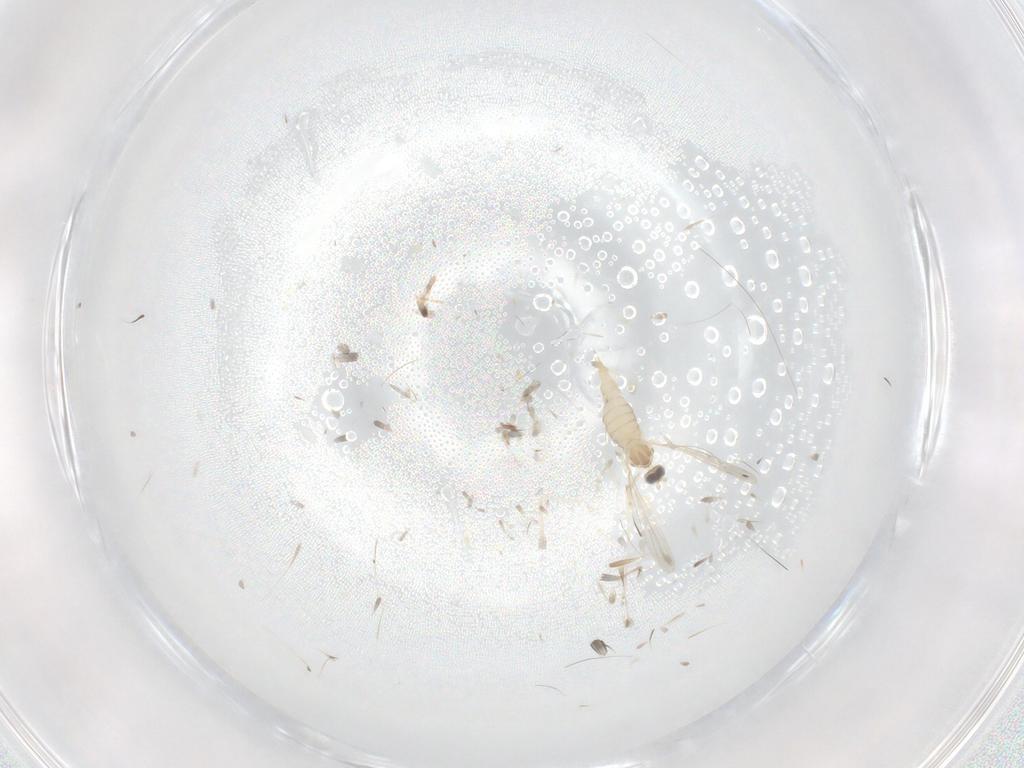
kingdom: Animalia
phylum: Arthropoda
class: Insecta
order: Diptera
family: Cecidomyiidae
